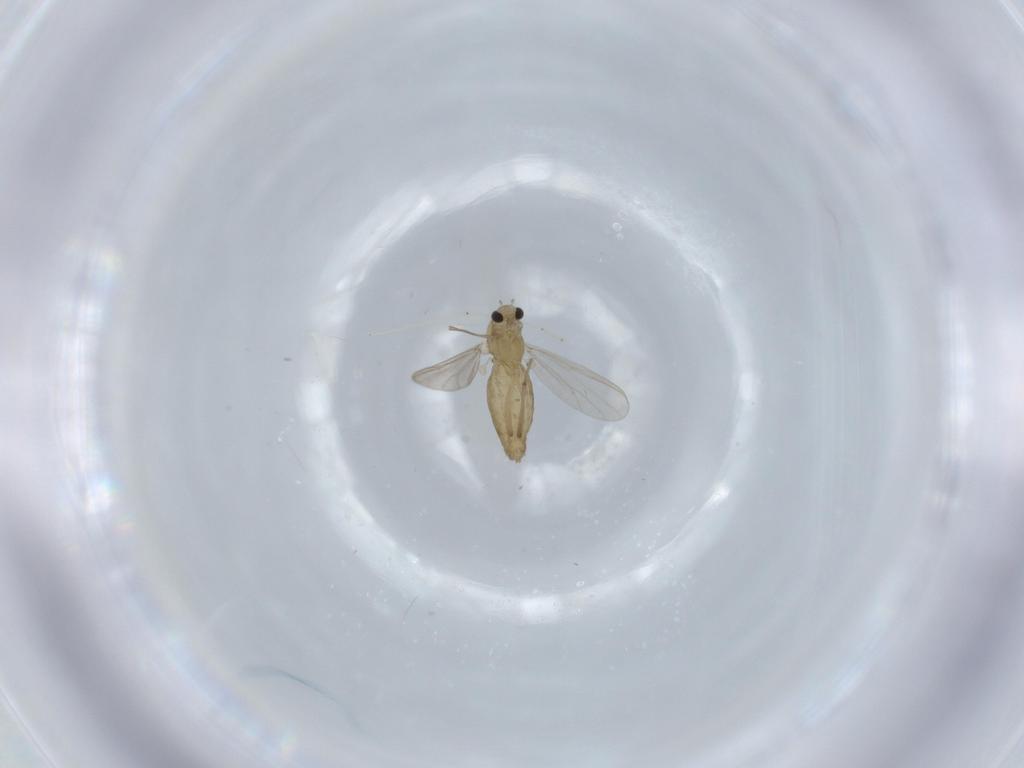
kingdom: Animalia
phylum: Arthropoda
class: Insecta
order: Diptera
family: Chironomidae
